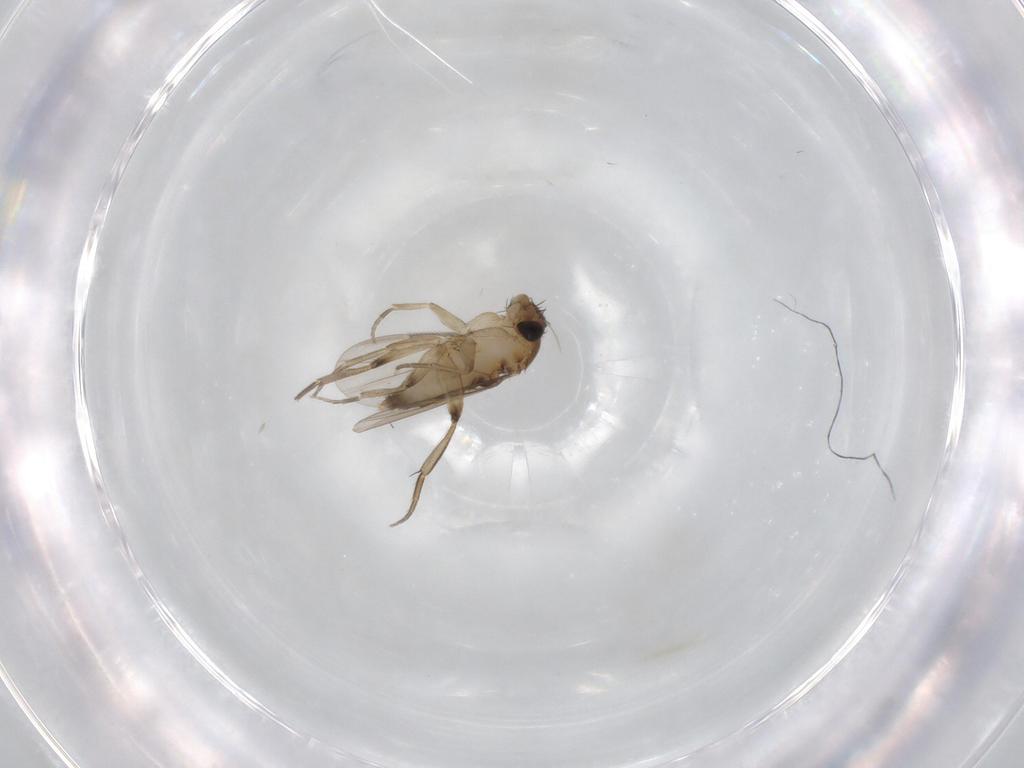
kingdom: Animalia
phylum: Arthropoda
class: Insecta
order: Diptera
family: Phoridae
